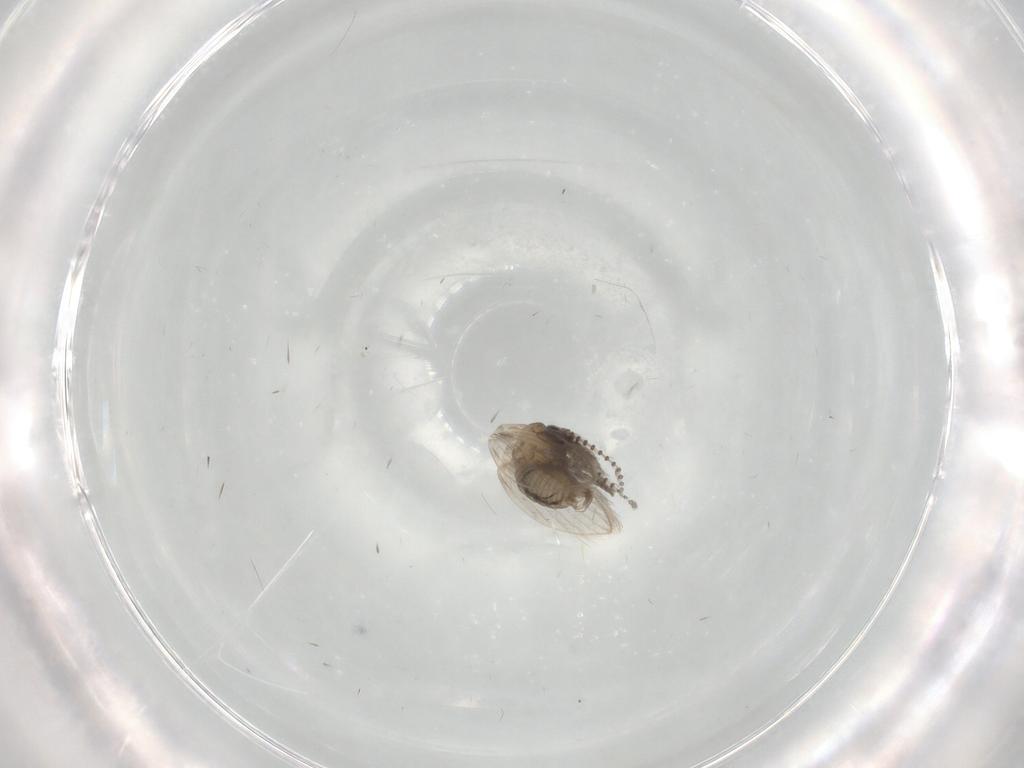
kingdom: Animalia
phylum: Arthropoda
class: Insecta
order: Diptera
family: Psychodidae
